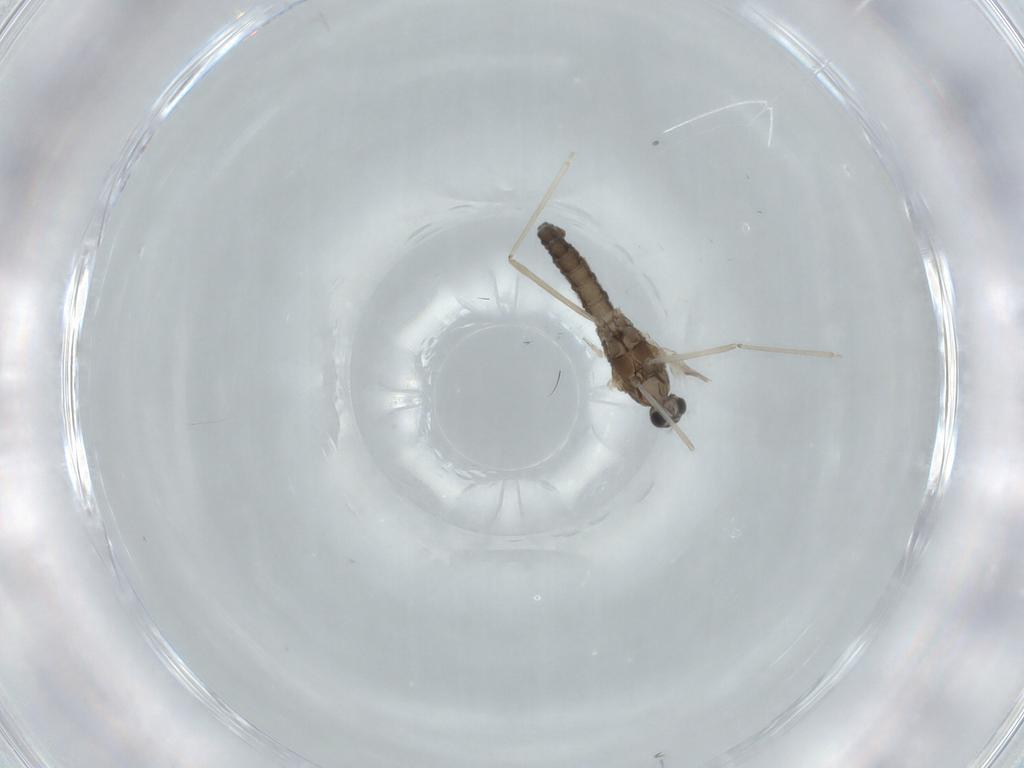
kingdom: Animalia
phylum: Arthropoda
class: Insecta
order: Diptera
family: Cecidomyiidae
